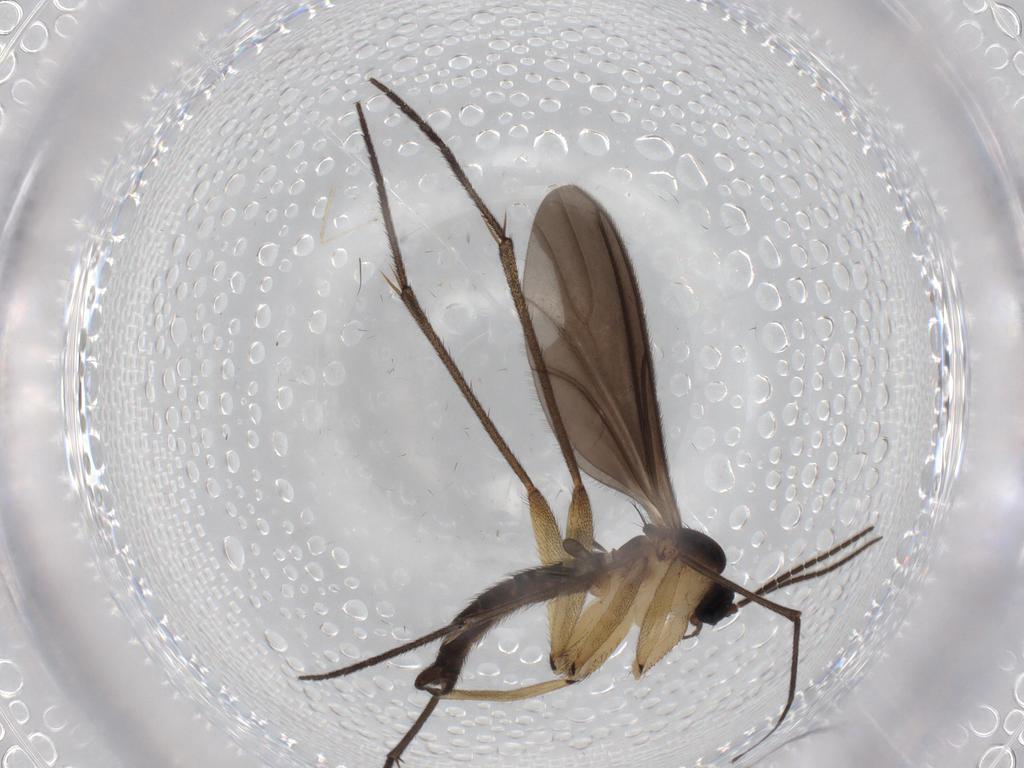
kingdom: Animalia
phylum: Arthropoda
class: Insecta
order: Diptera
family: Sciaridae
